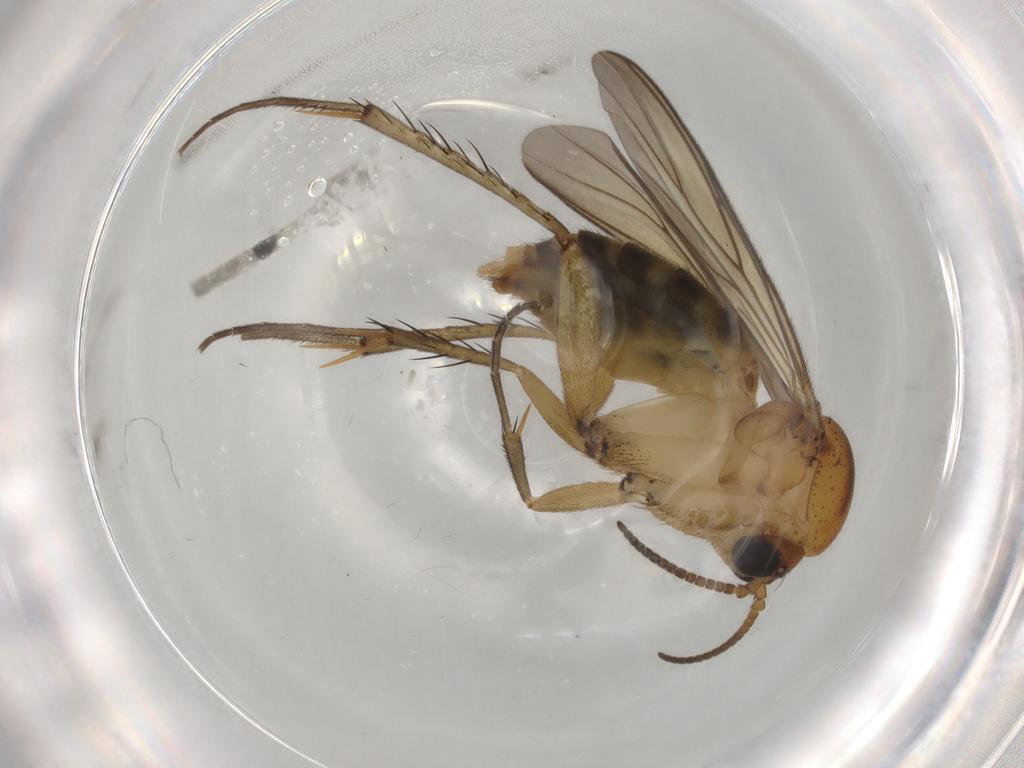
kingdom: Animalia
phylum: Arthropoda
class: Insecta
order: Diptera
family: Mycetophilidae
